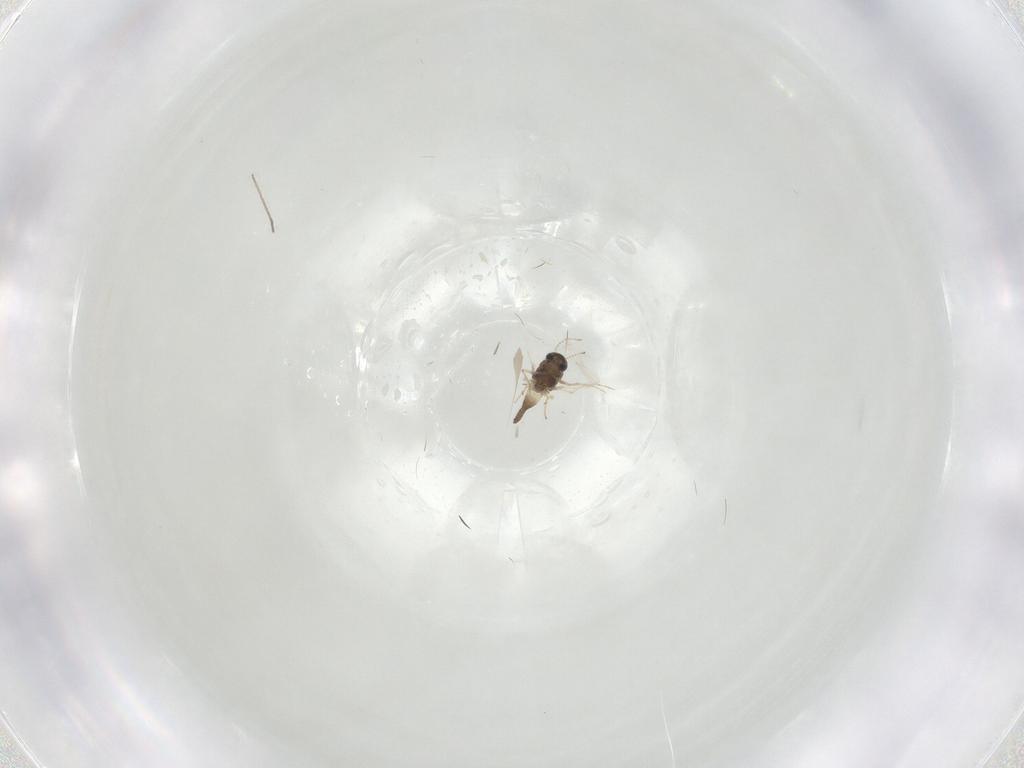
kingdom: Animalia
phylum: Arthropoda
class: Insecta
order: Diptera
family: Chironomidae
